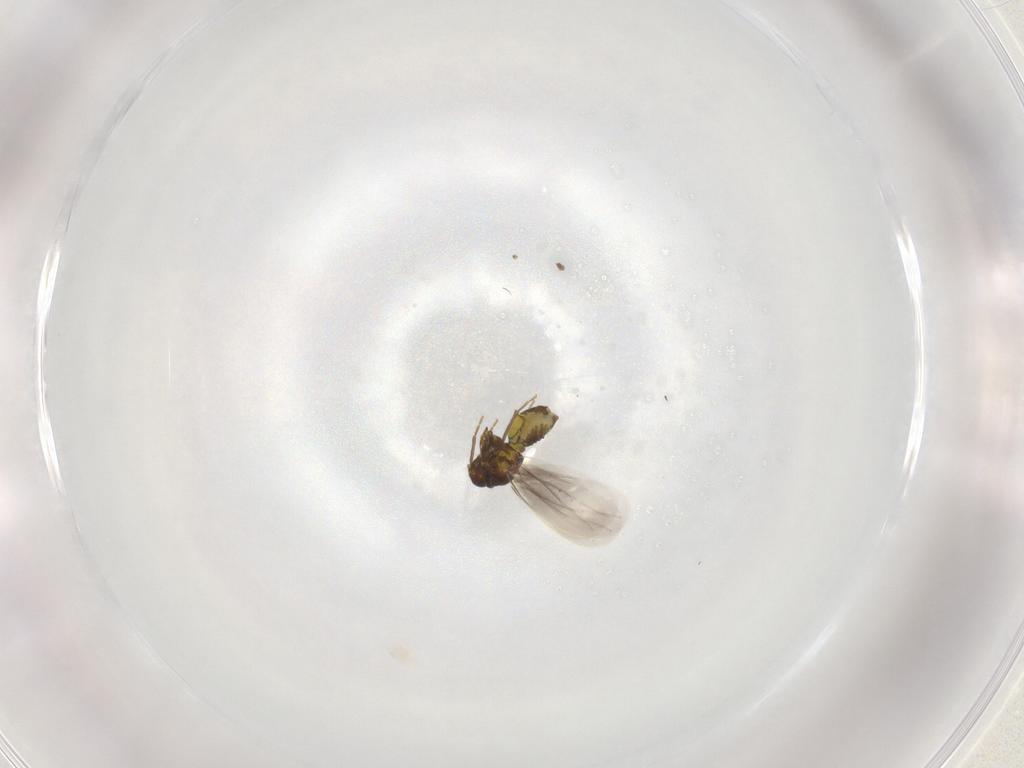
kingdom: Animalia
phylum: Arthropoda
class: Insecta
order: Hemiptera
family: Aleyrodidae
